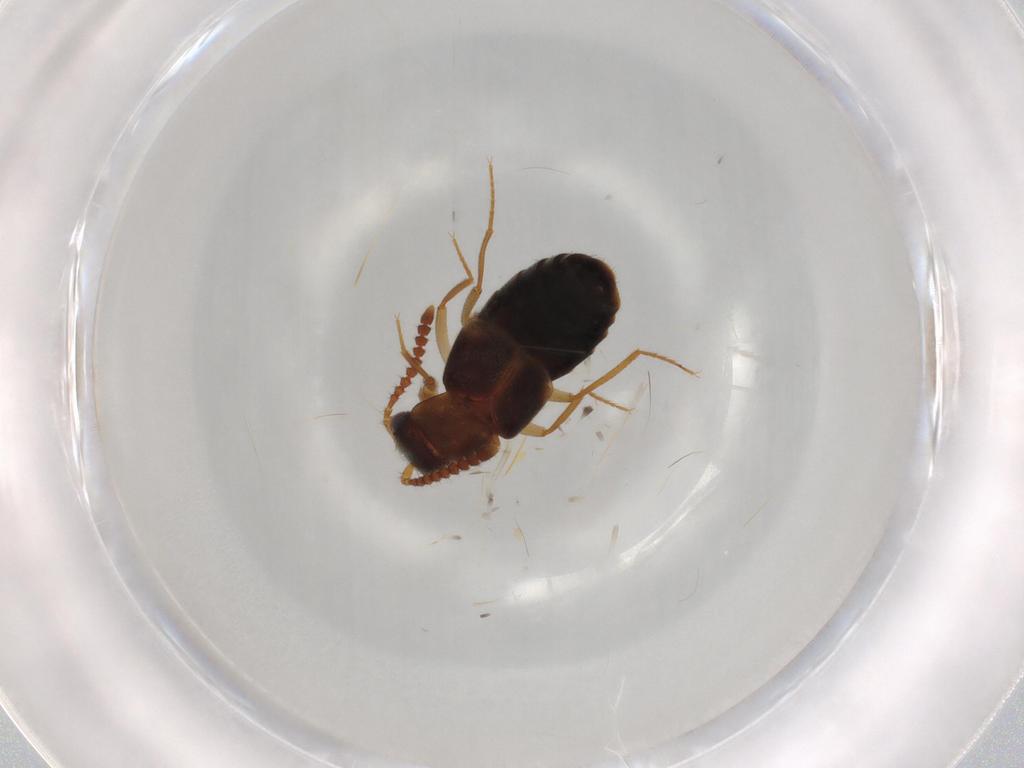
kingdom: Animalia
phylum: Arthropoda
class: Insecta
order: Coleoptera
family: Staphylinidae
